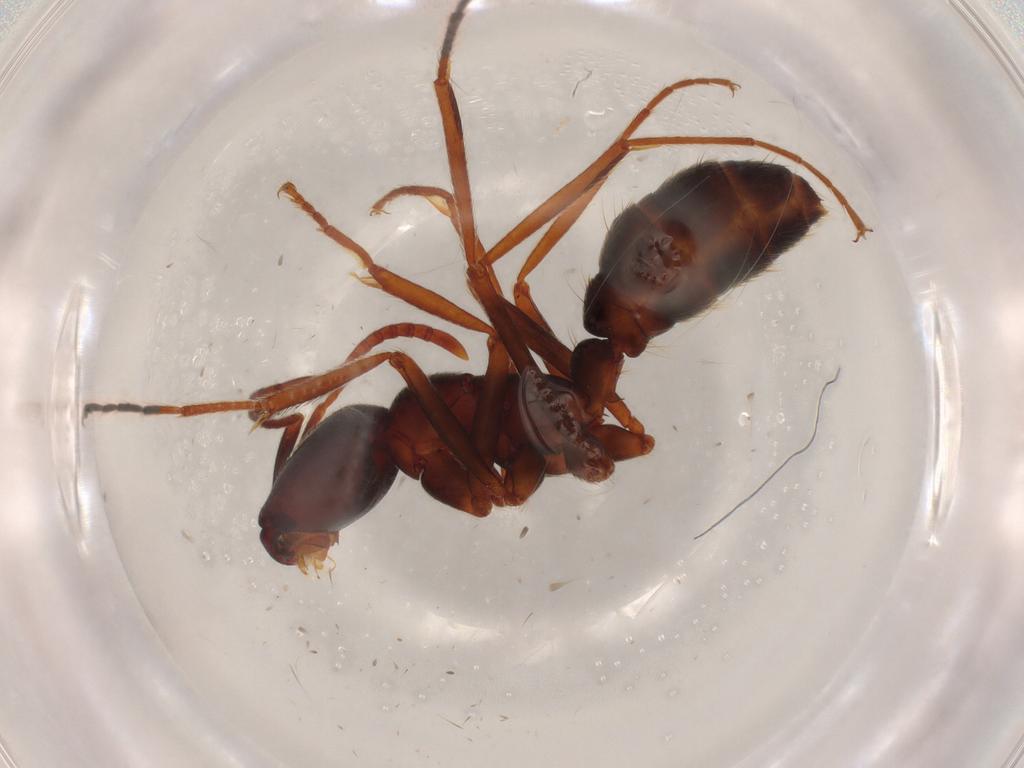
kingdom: Animalia
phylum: Arthropoda
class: Insecta
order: Hymenoptera
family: Formicidae
